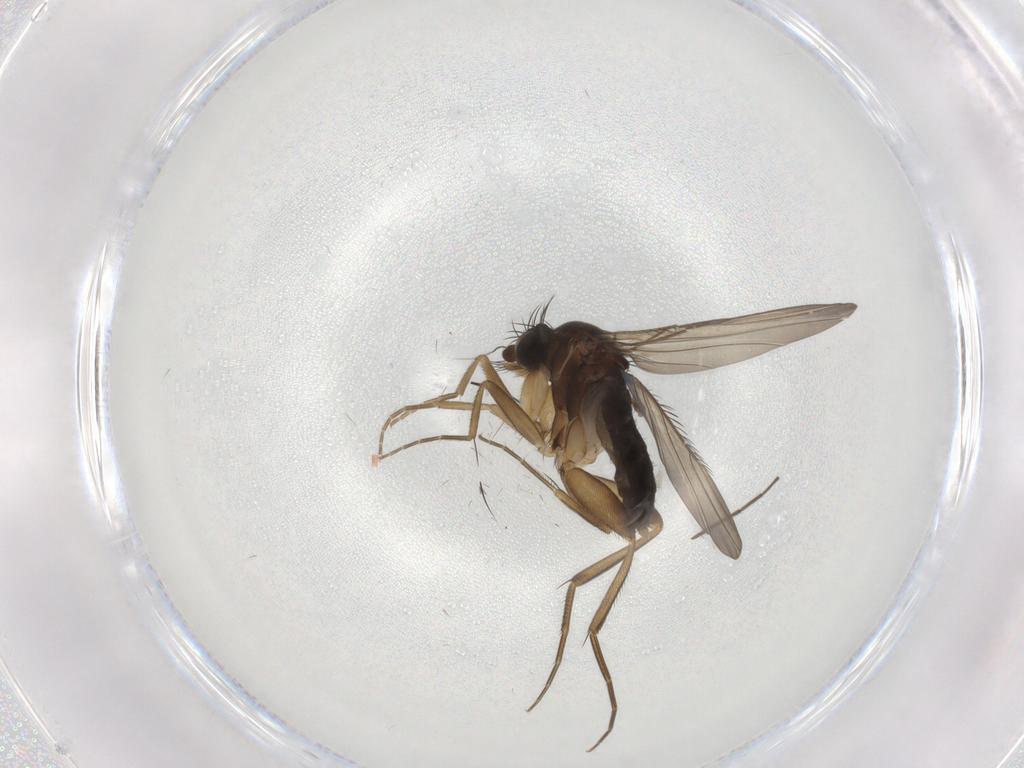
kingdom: Animalia
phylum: Arthropoda
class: Insecta
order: Diptera
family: Phoridae
